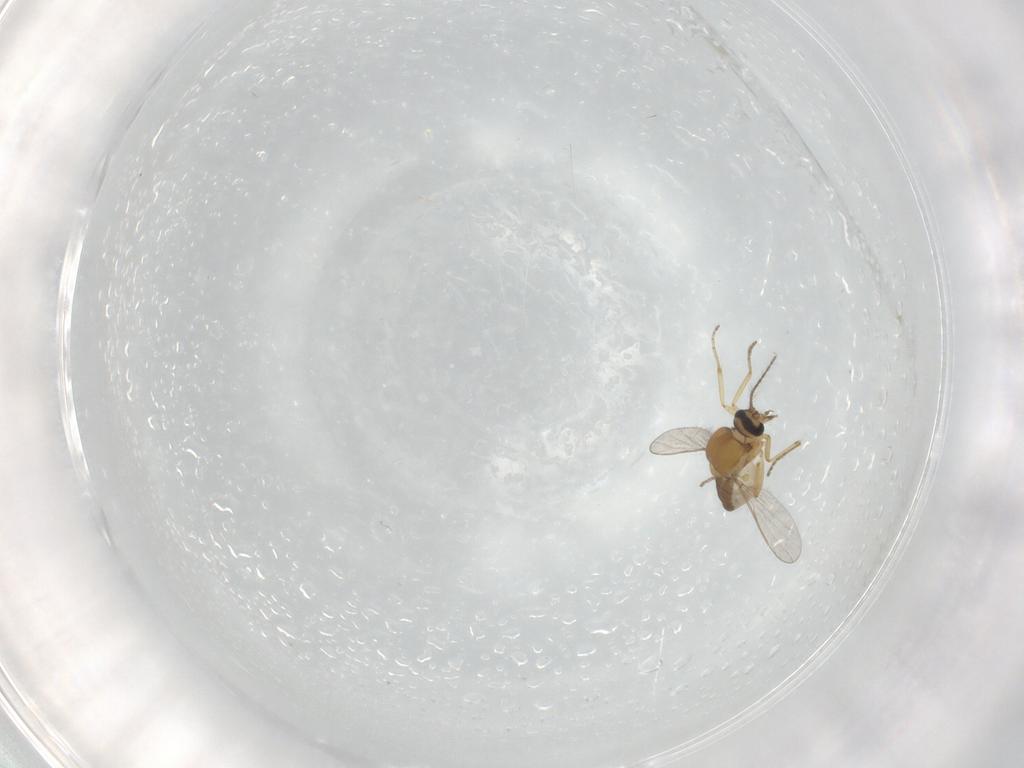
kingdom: Animalia
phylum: Arthropoda
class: Insecta
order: Diptera
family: Ceratopogonidae
